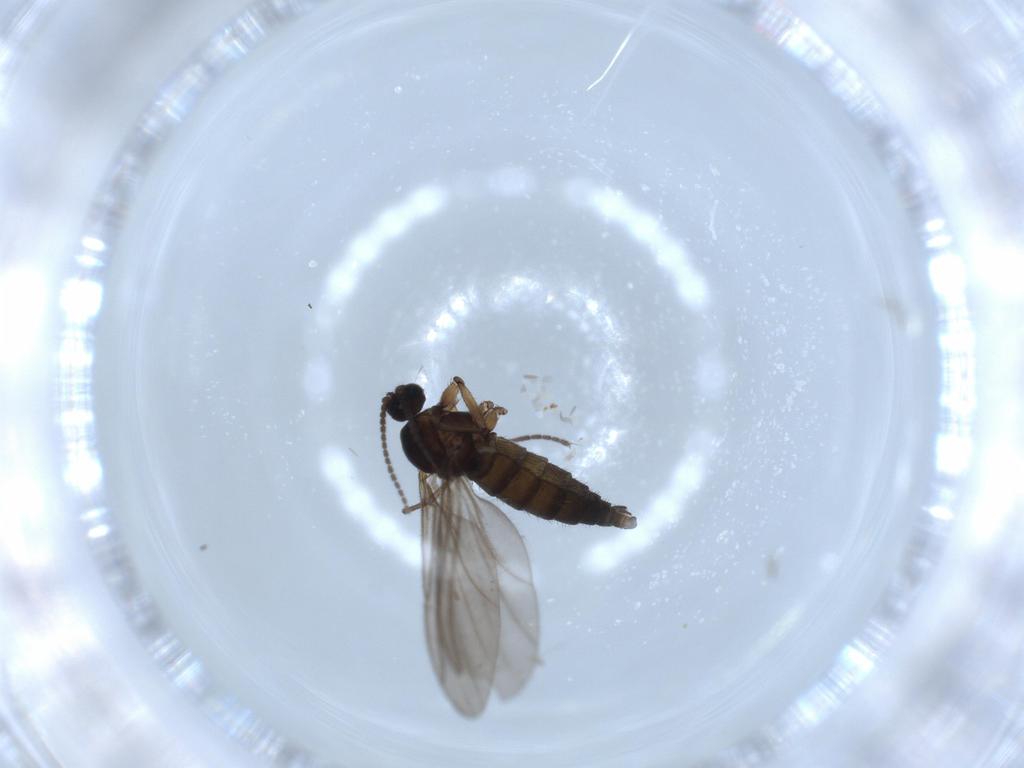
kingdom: Animalia
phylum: Arthropoda
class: Insecta
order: Diptera
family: Sciaridae
